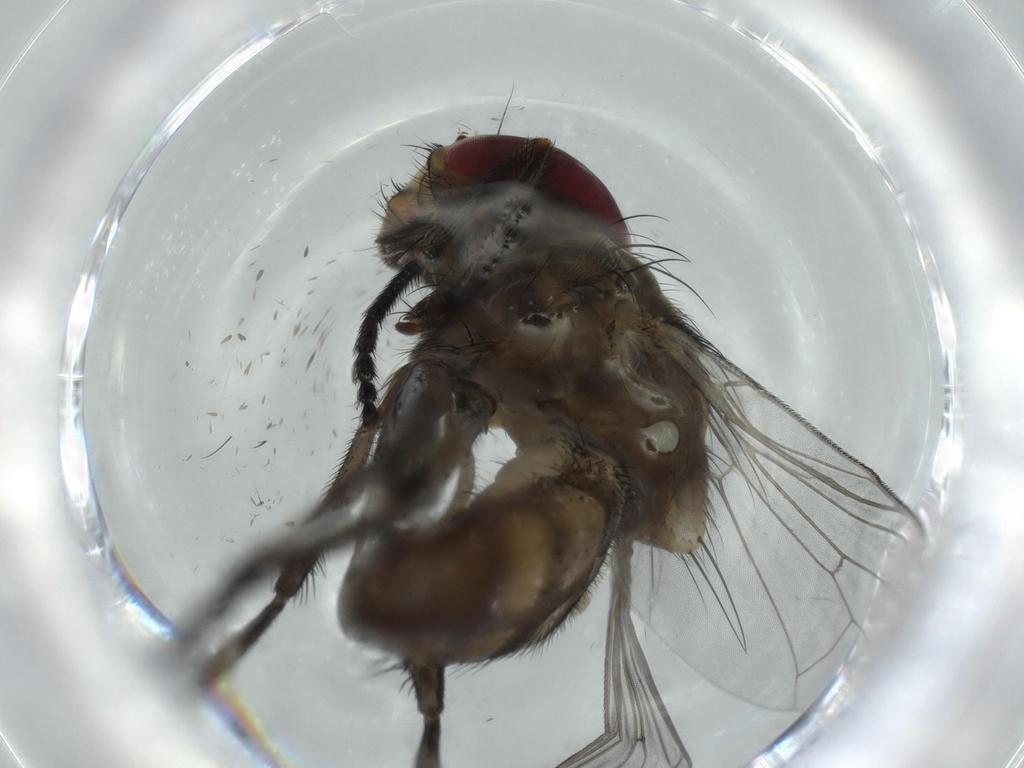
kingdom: Animalia
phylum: Arthropoda
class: Insecta
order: Diptera
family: Fannia
